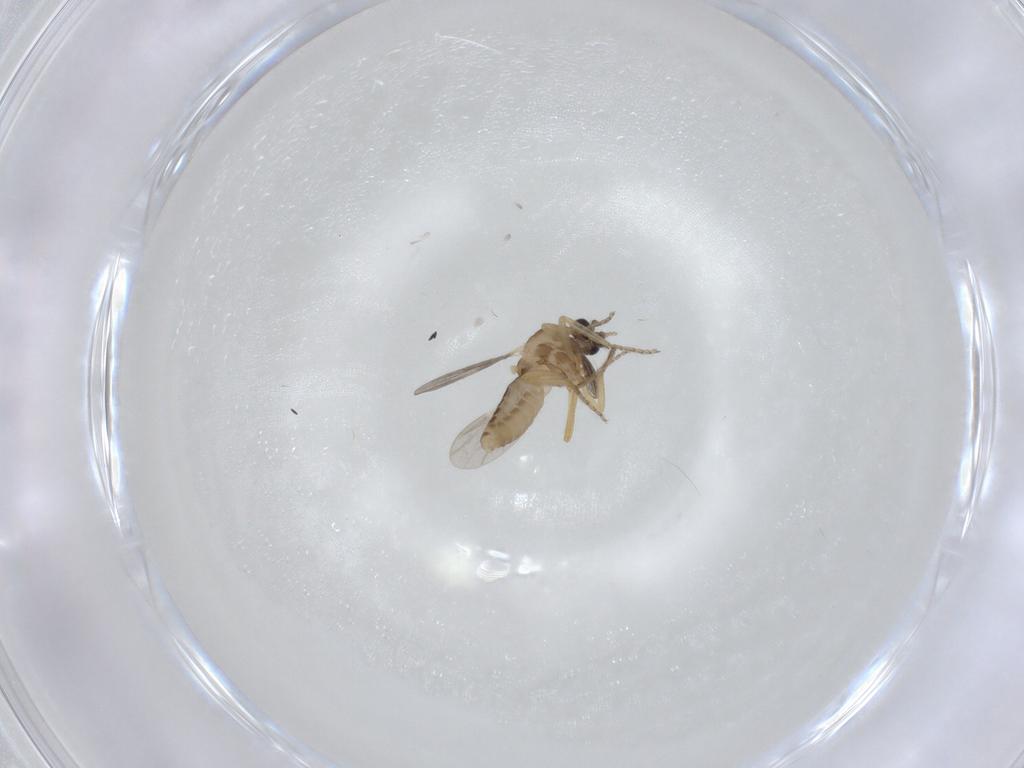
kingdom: Animalia
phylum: Arthropoda
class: Insecta
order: Diptera
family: Ceratopogonidae
